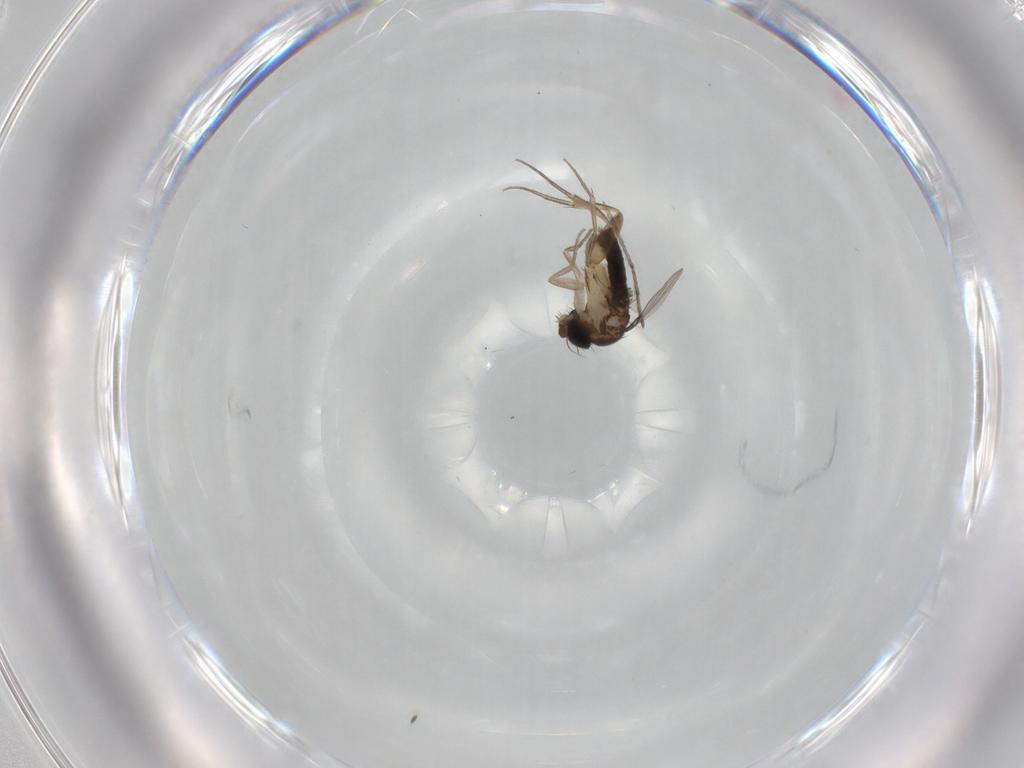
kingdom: Animalia
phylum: Arthropoda
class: Insecta
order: Diptera
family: Phoridae
